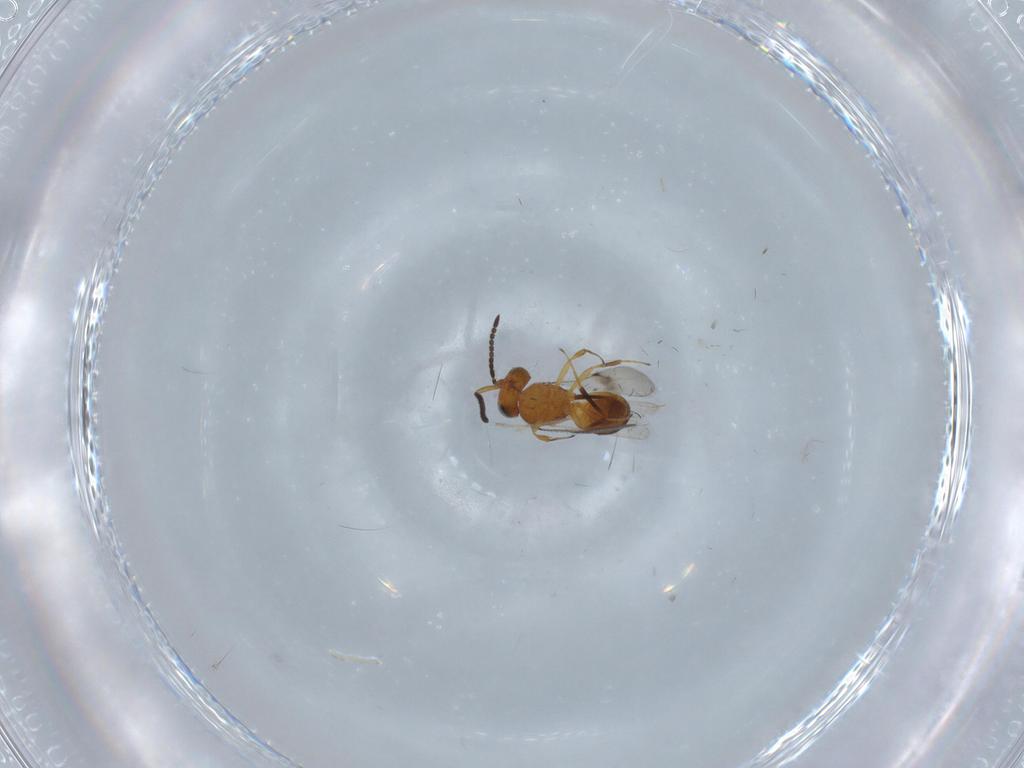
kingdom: Animalia
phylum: Arthropoda
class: Insecta
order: Hymenoptera
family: Scelionidae
